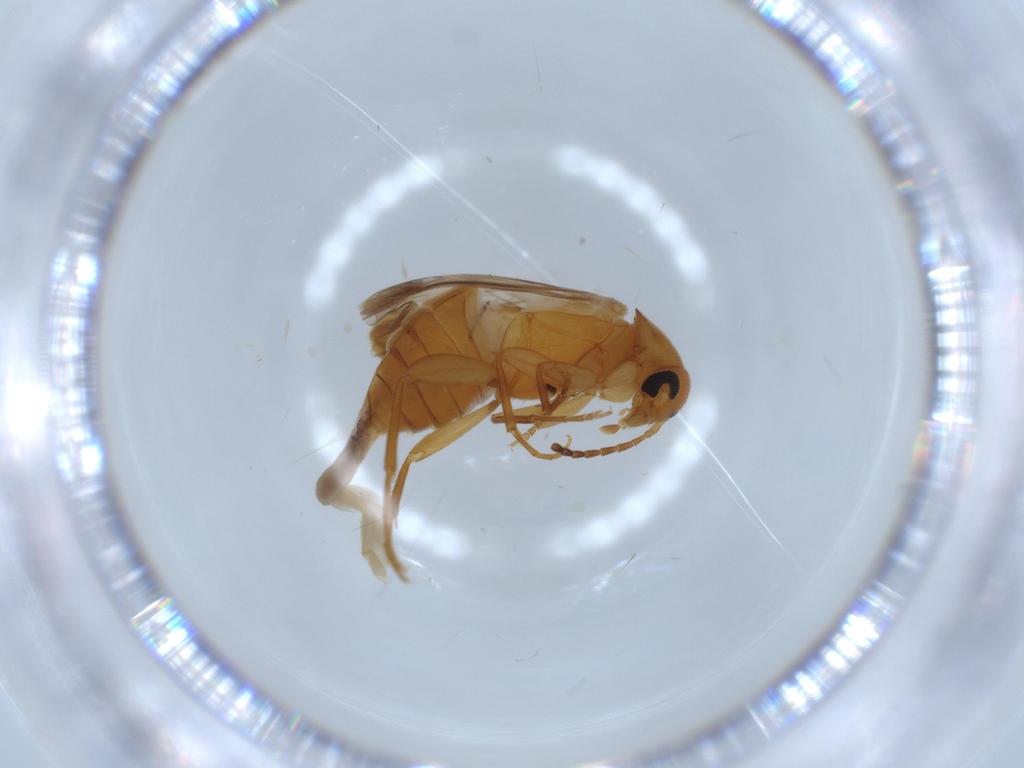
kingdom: Animalia
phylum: Arthropoda
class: Insecta
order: Coleoptera
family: Scraptiidae
